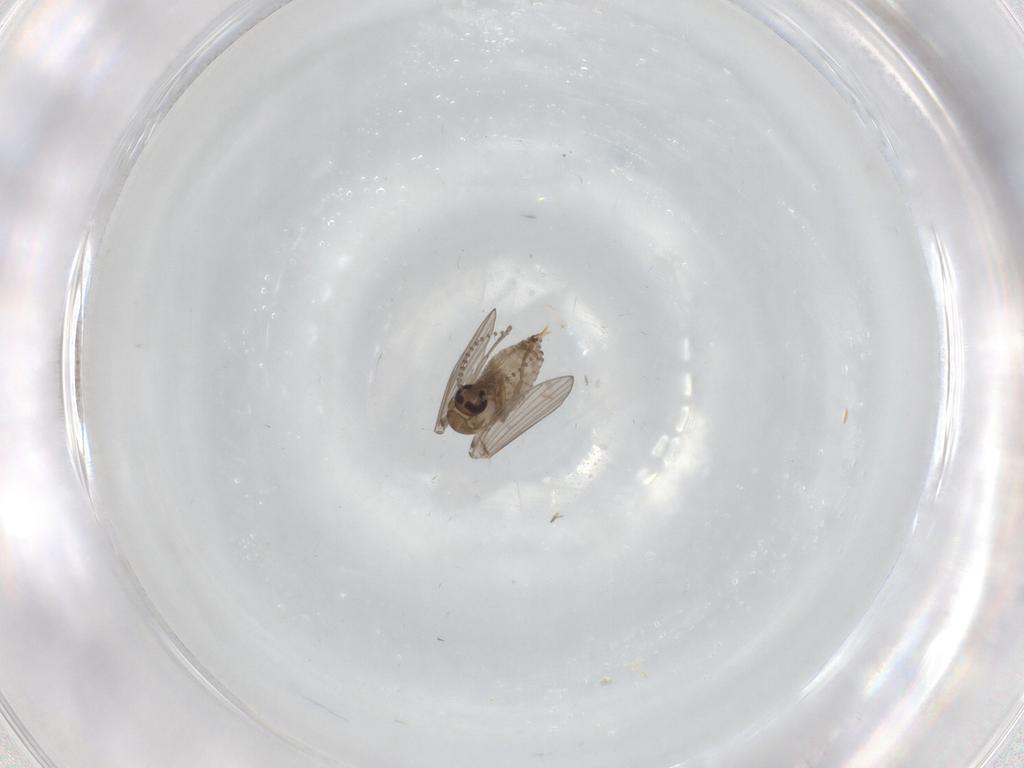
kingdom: Animalia
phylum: Arthropoda
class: Insecta
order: Diptera
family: Psychodidae
